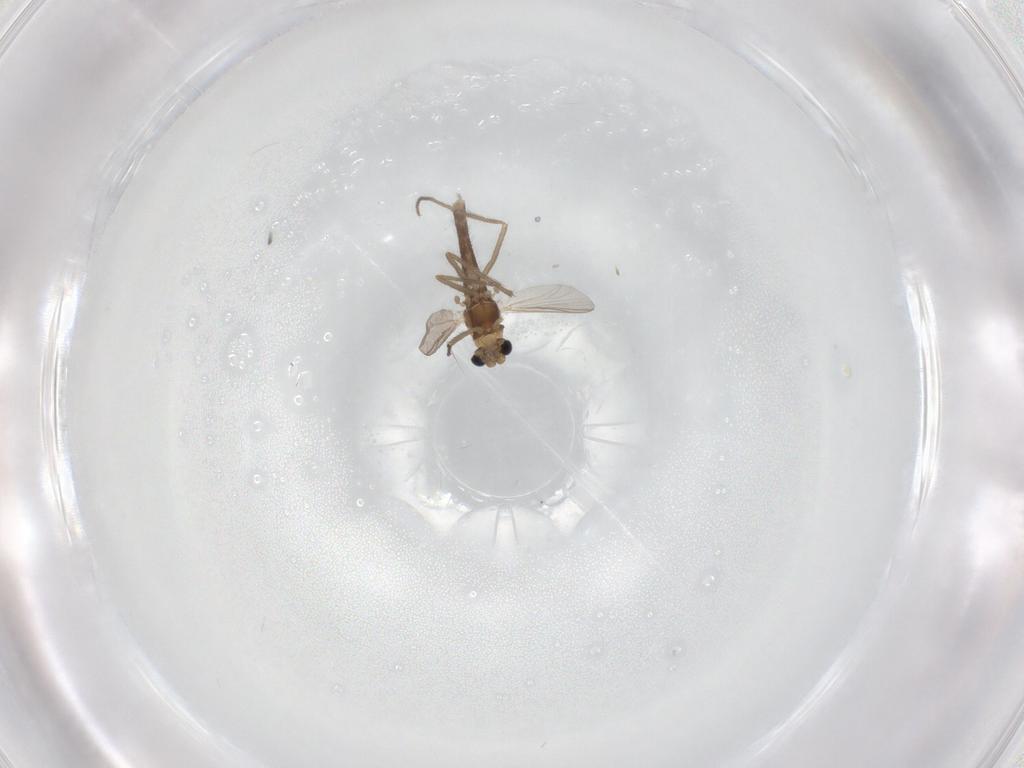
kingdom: Animalia
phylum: Arthropoda
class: Insecta
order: Diptera
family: Chironomidae
